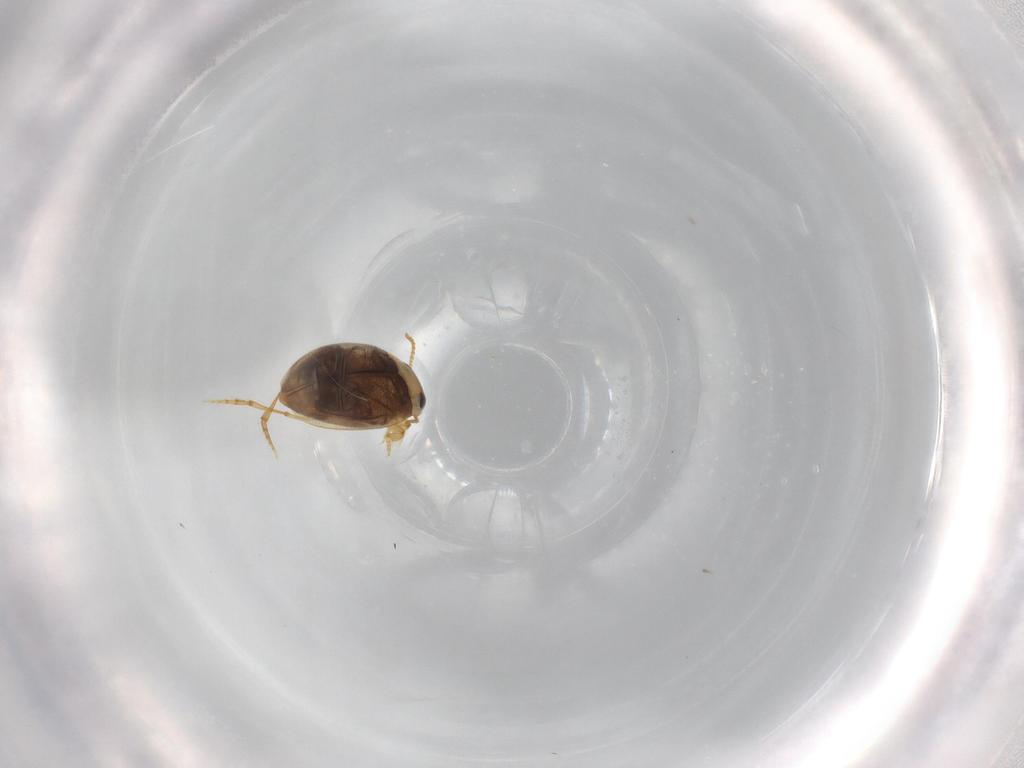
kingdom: Animalia
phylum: Arthropoda
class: Insecta
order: Coleoptera
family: Dytiscidae
